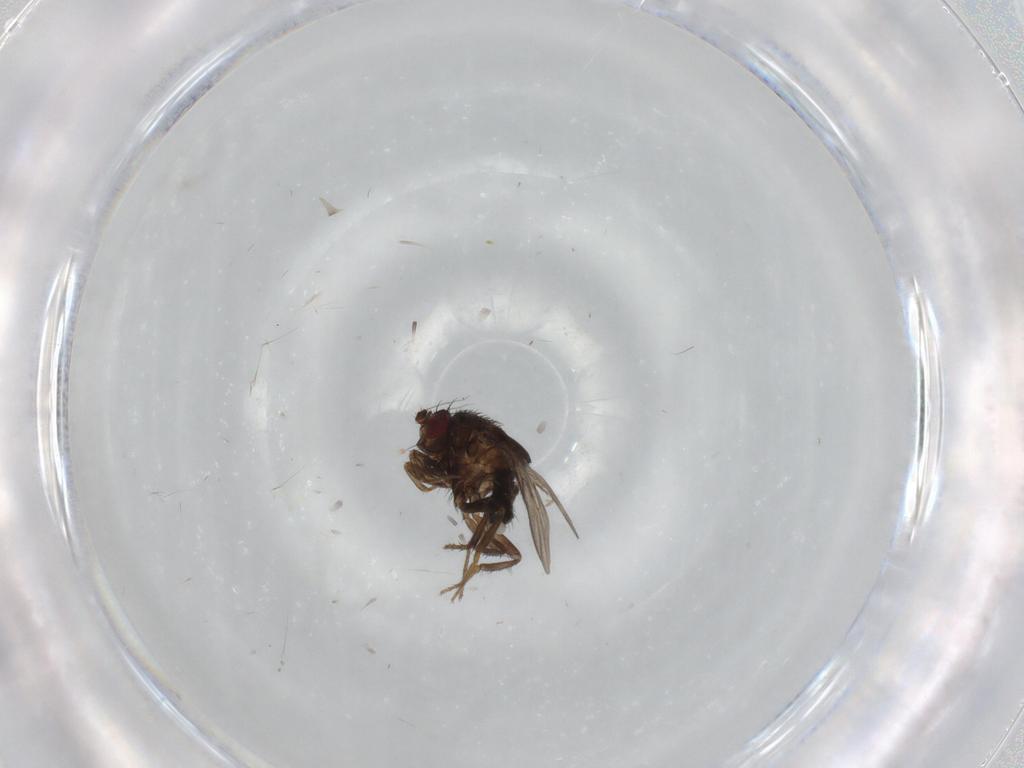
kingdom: Animalia
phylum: Arthropoda
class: Insecta
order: Diptera
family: Sphaeroceridae
